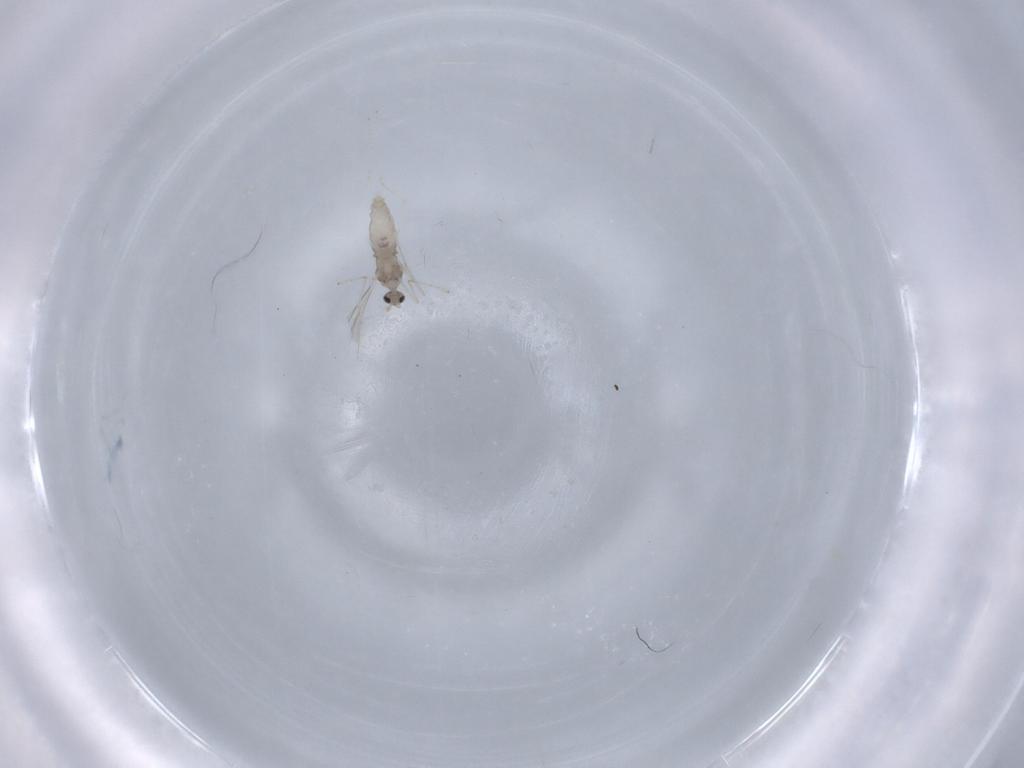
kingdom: Animalia
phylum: Arthropoda
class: Insecta
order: Diptera
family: Cecidomyiidae
